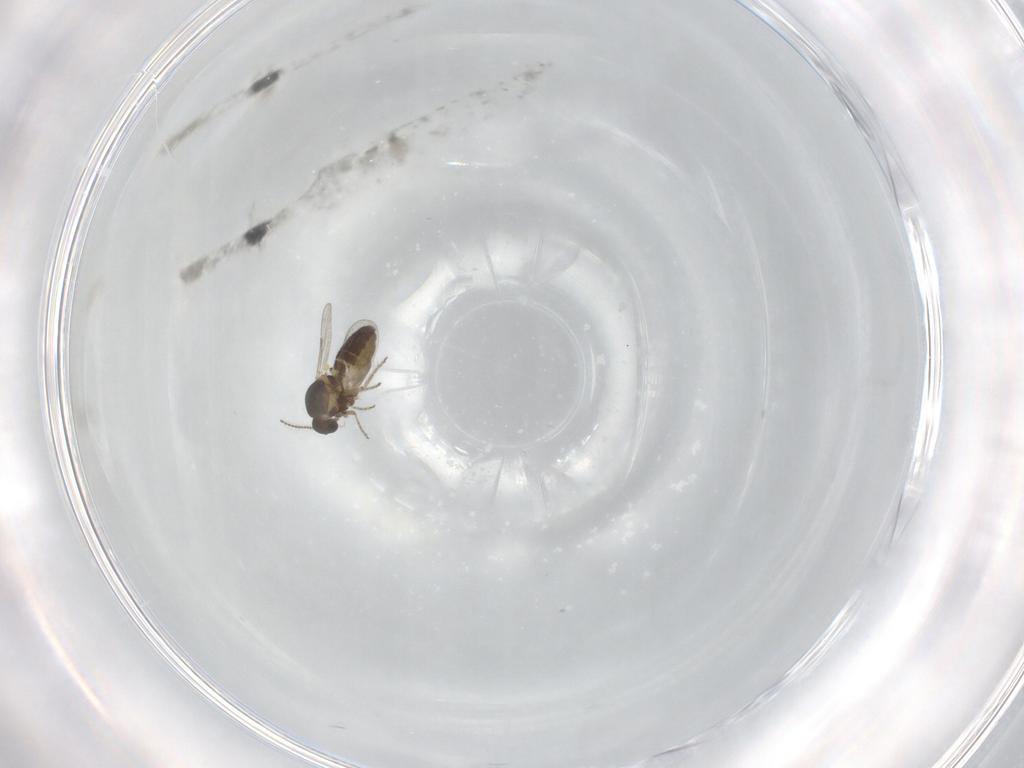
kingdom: Animalia
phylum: Arthropoda
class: Insecta
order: Diptera
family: Ceratopogonidae
